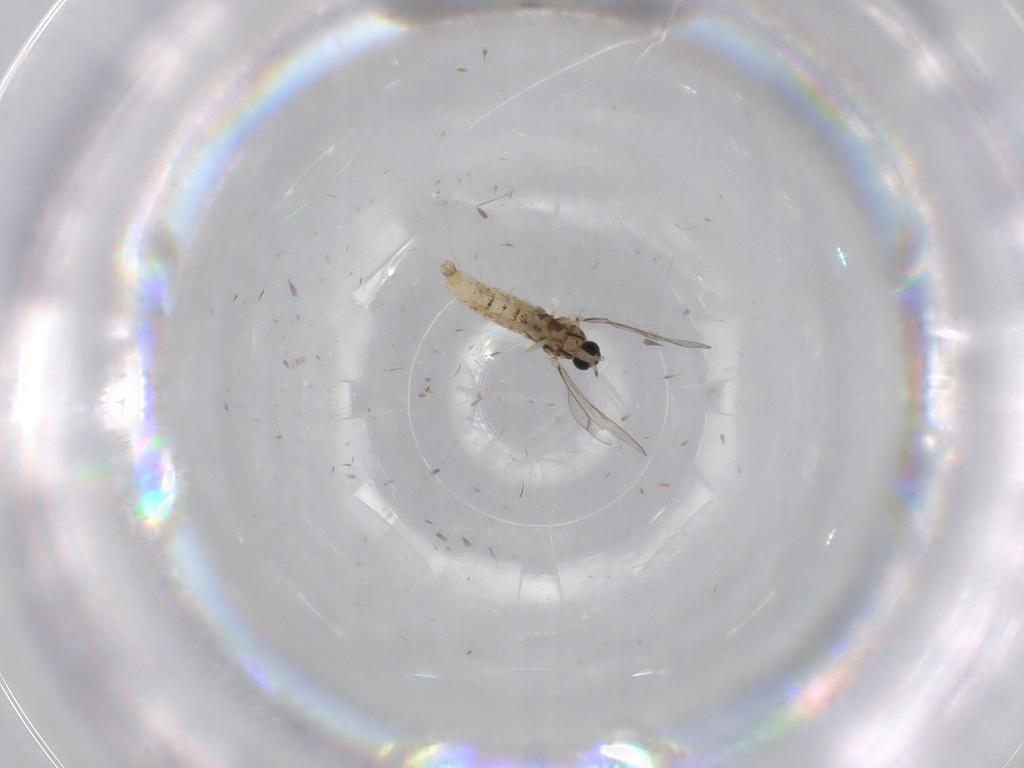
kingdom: Animalia
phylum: Arthropoda
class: Insecta
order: Diptera
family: Cecidomyiidae
